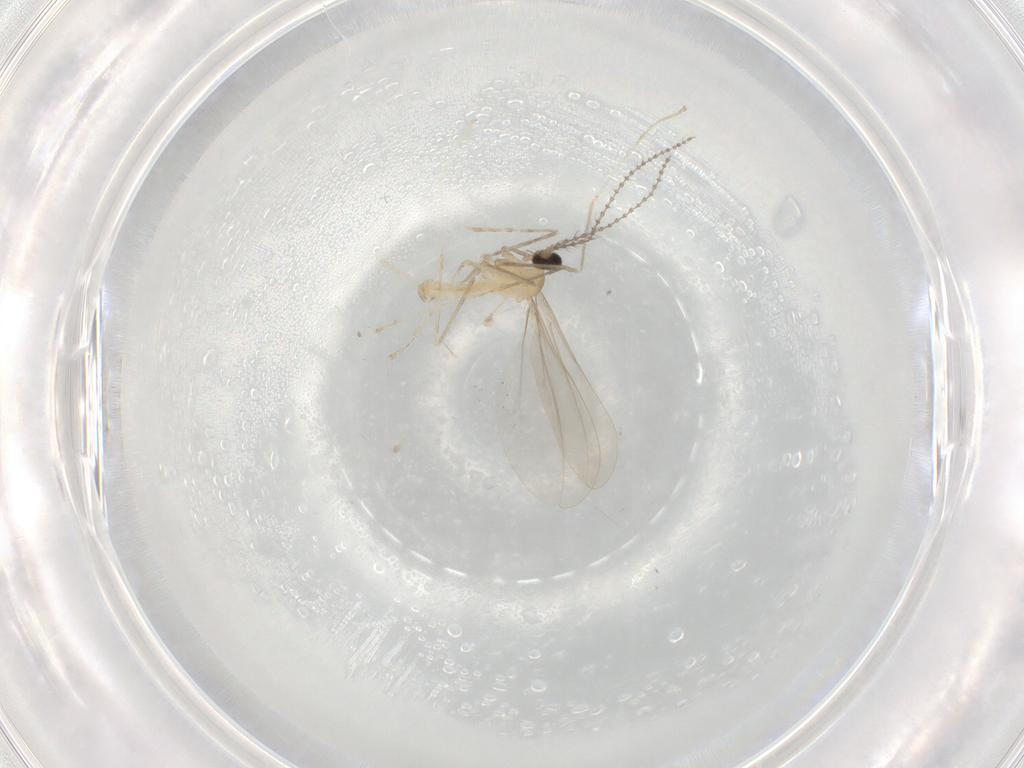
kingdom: Animalia
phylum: Arthropoda
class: Insecta
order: Diptera
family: Cecidomyiidae
